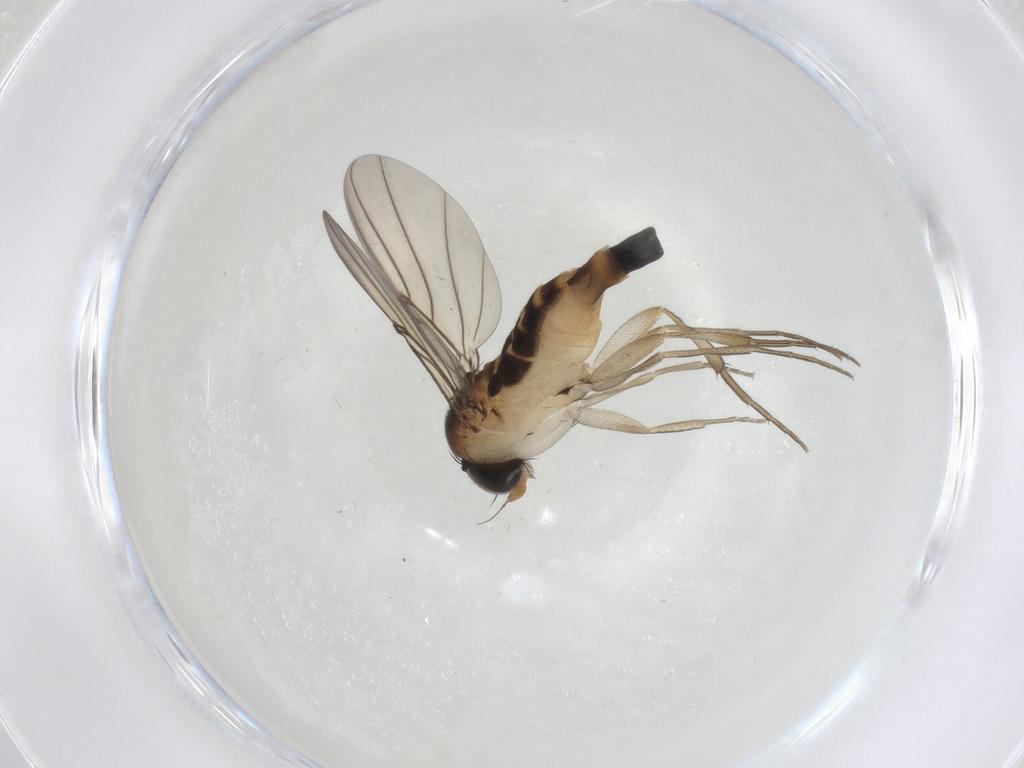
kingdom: Animalia
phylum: Arthropoda
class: Insecta
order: Diptera
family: Phoridae
